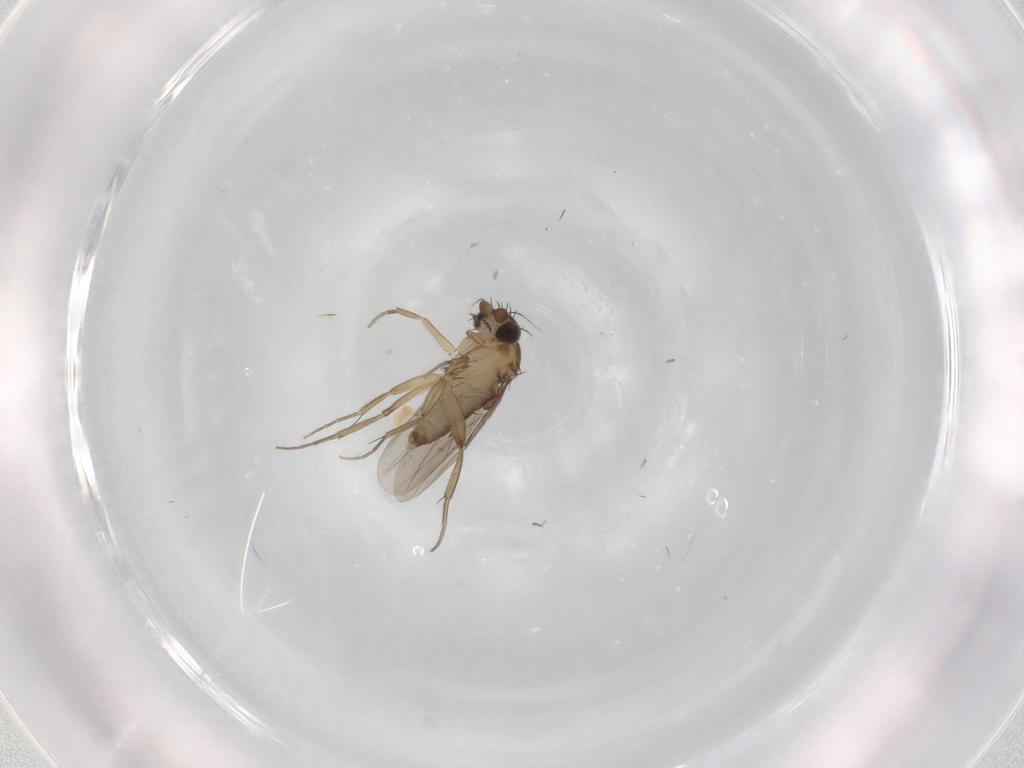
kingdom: Animalia
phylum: Arthropoda
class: Insecta
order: Diptera
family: Phoridae
